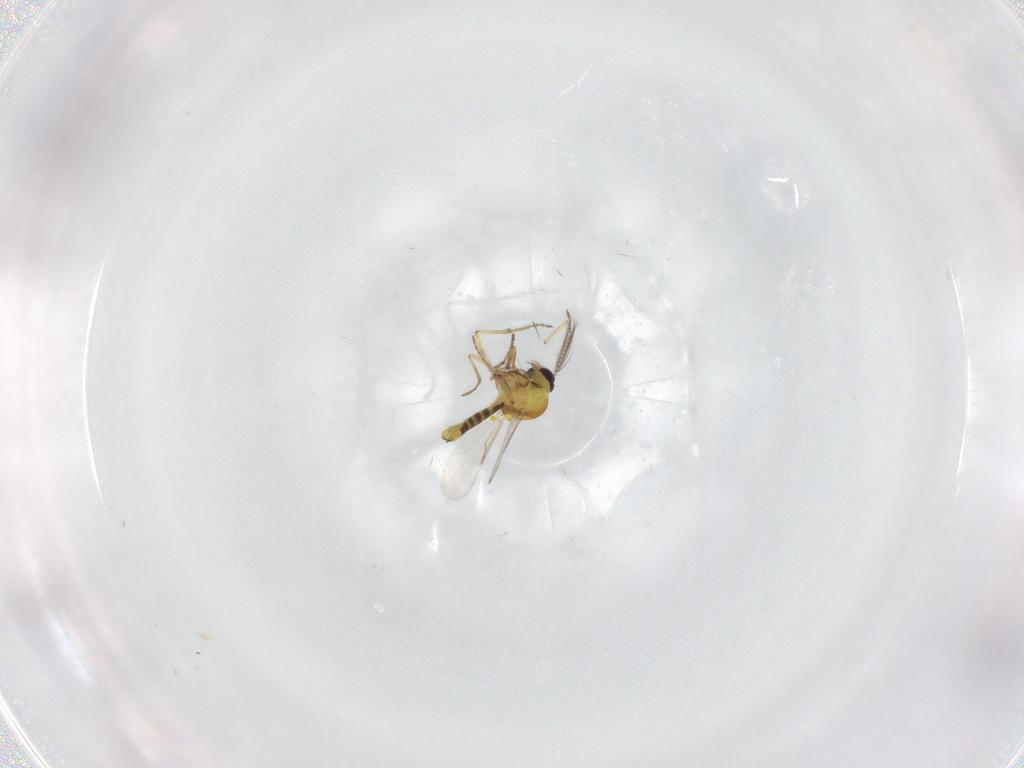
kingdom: Animalia
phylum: Arthropoda
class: Insecta
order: Diptera
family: Ceratopogonidae
